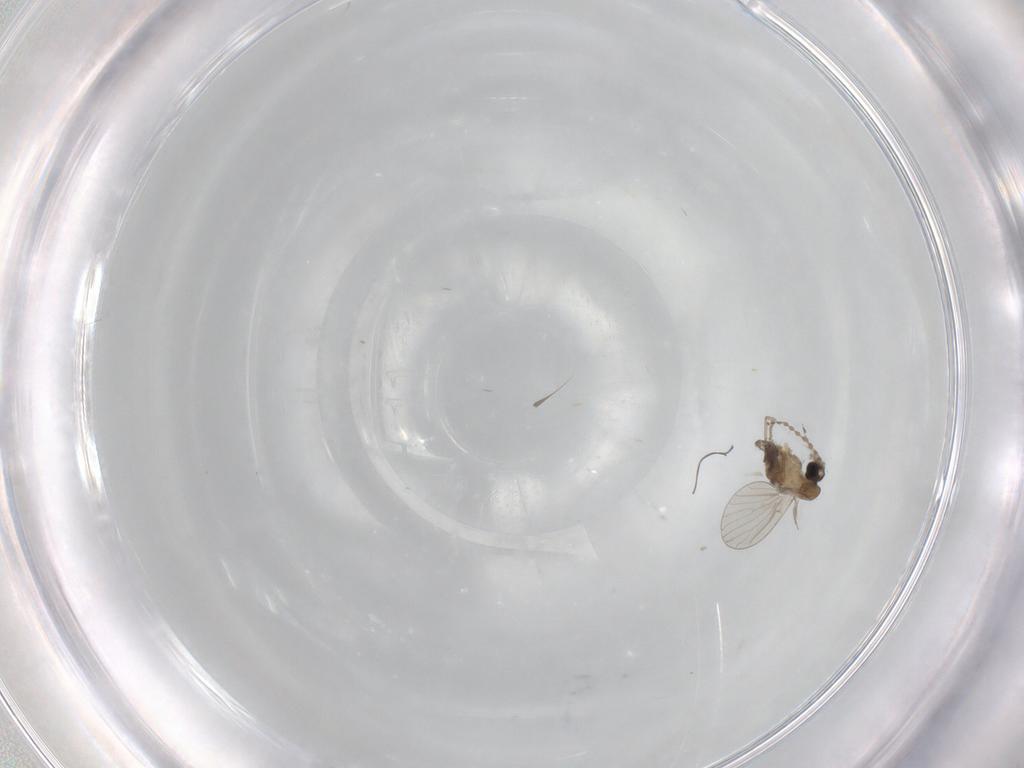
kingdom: Animalia
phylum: Arthropoda
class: Insecta
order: Diptera
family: Psychodidae
